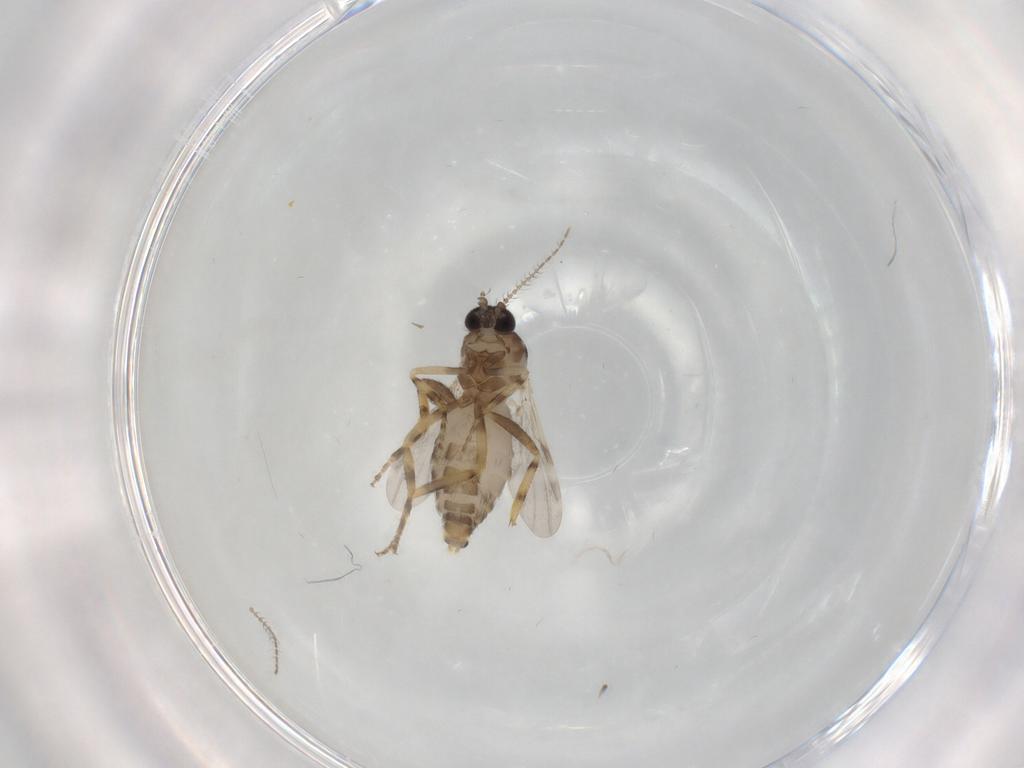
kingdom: Animalia
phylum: Arthropoda
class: Insecta
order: Diptera
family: Ceratopogonidae
